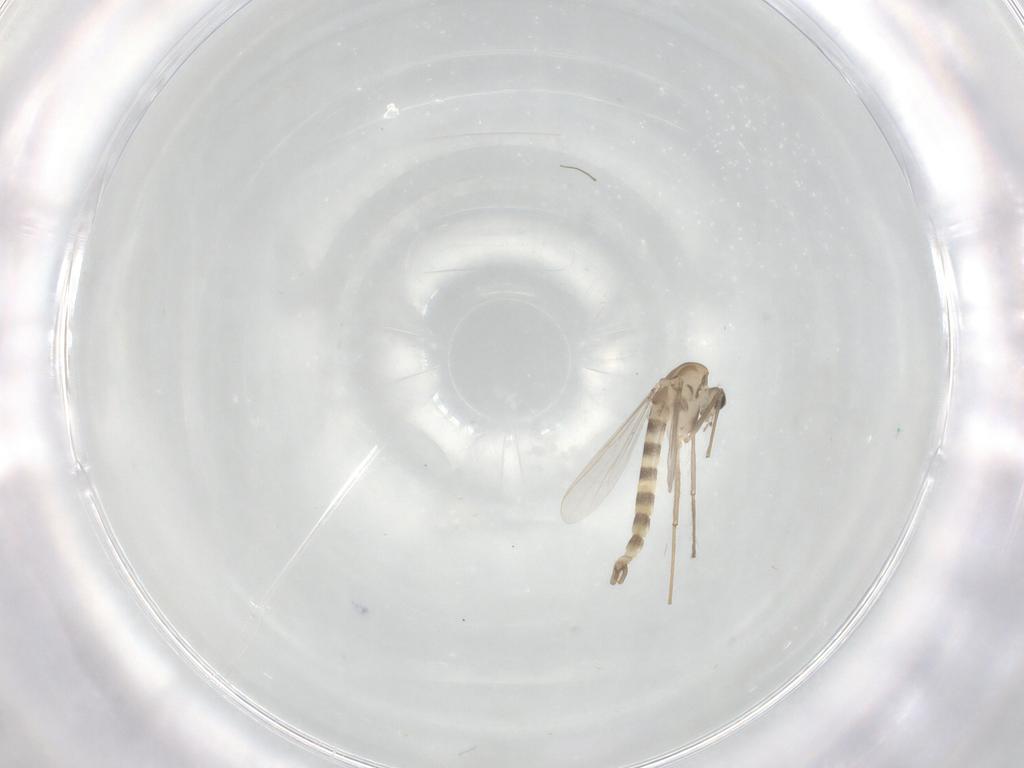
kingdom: Animalia
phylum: Arthropoda
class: Insecta
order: Diptera
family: Chironomidae
